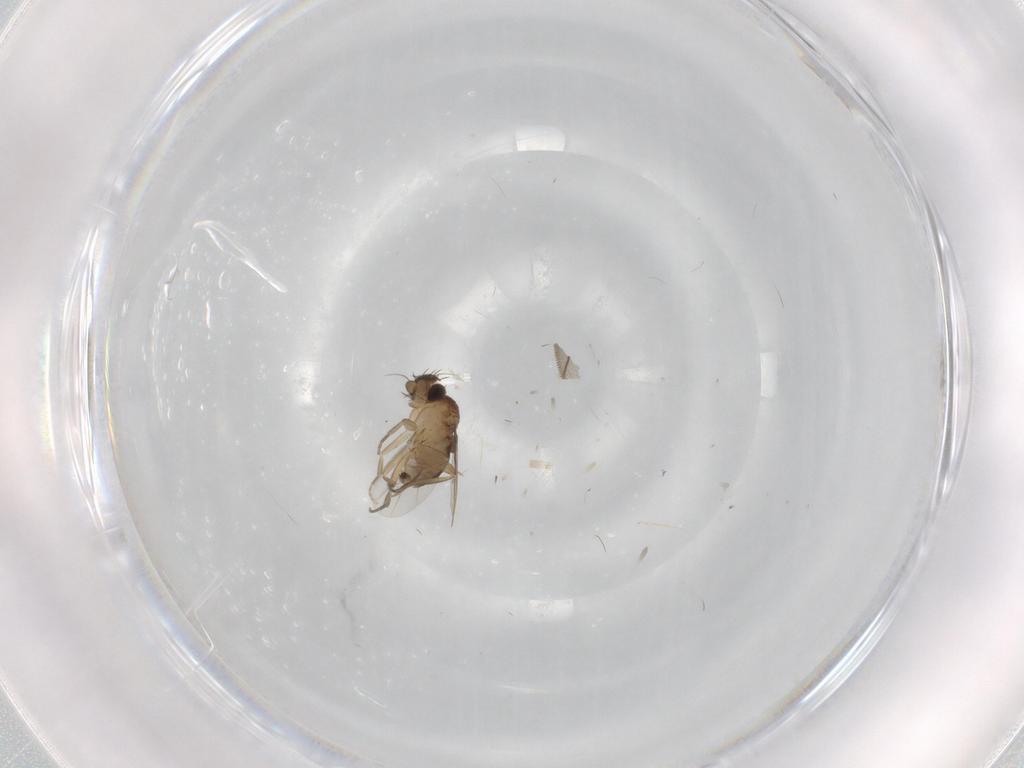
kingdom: Animalia
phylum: Arthropoda
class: Insecta
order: Diptera
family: Phoridae
